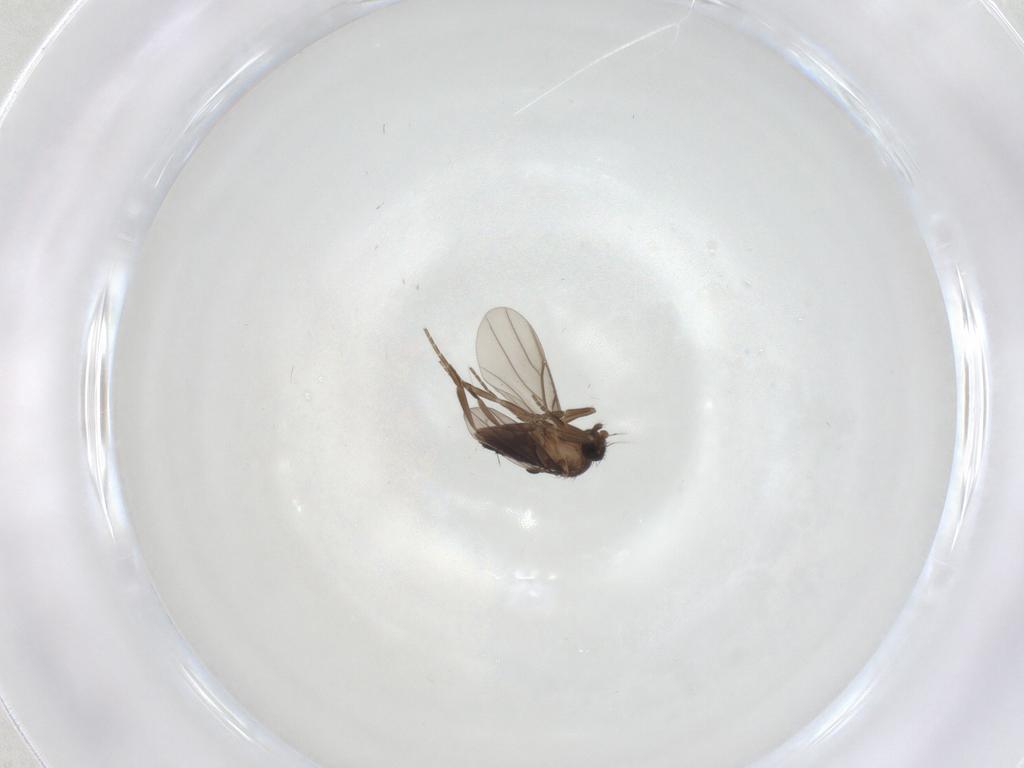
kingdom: Animalia
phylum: Arthropoda
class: Insecta
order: Diptera
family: Phoridae
